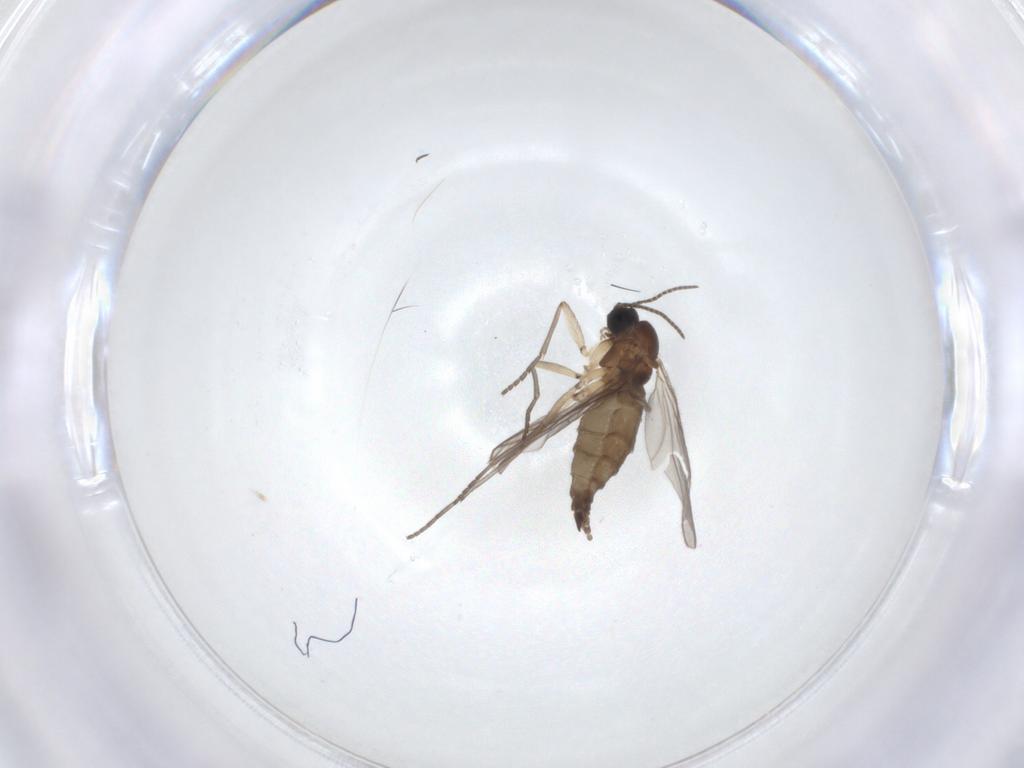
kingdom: Animalia
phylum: Arthropoda
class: Insecta
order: Diptera
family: Sciaridae
